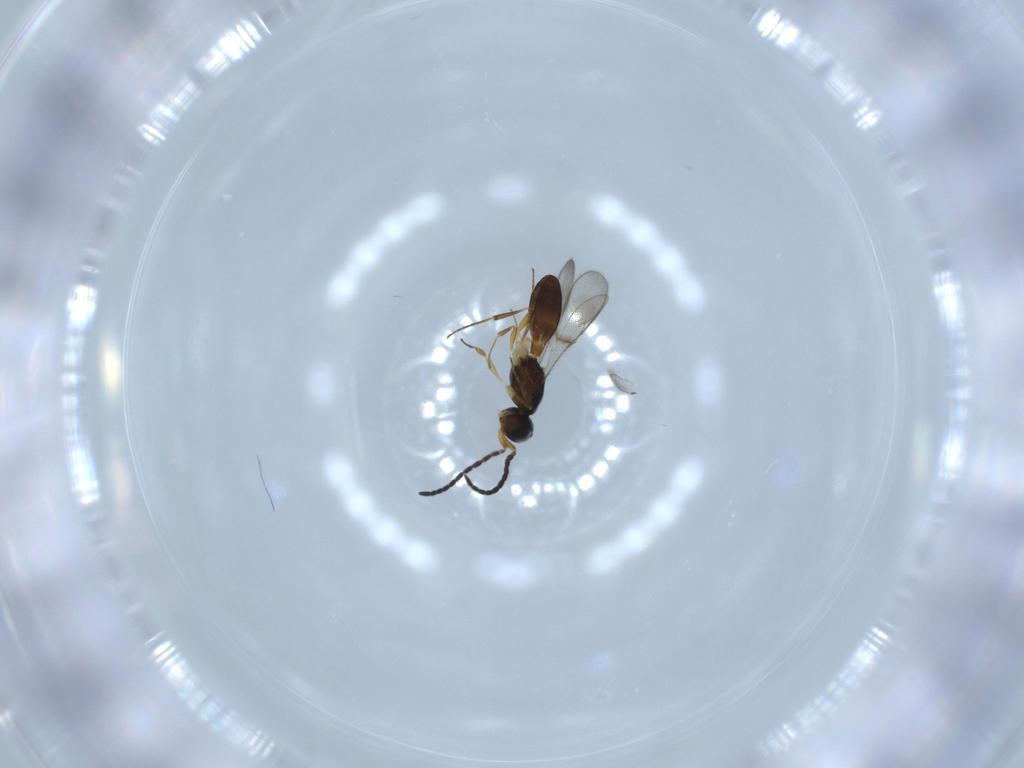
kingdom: Animalia
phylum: Arthropoda
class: Insecta
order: Hymenoptera
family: Scelionidae
